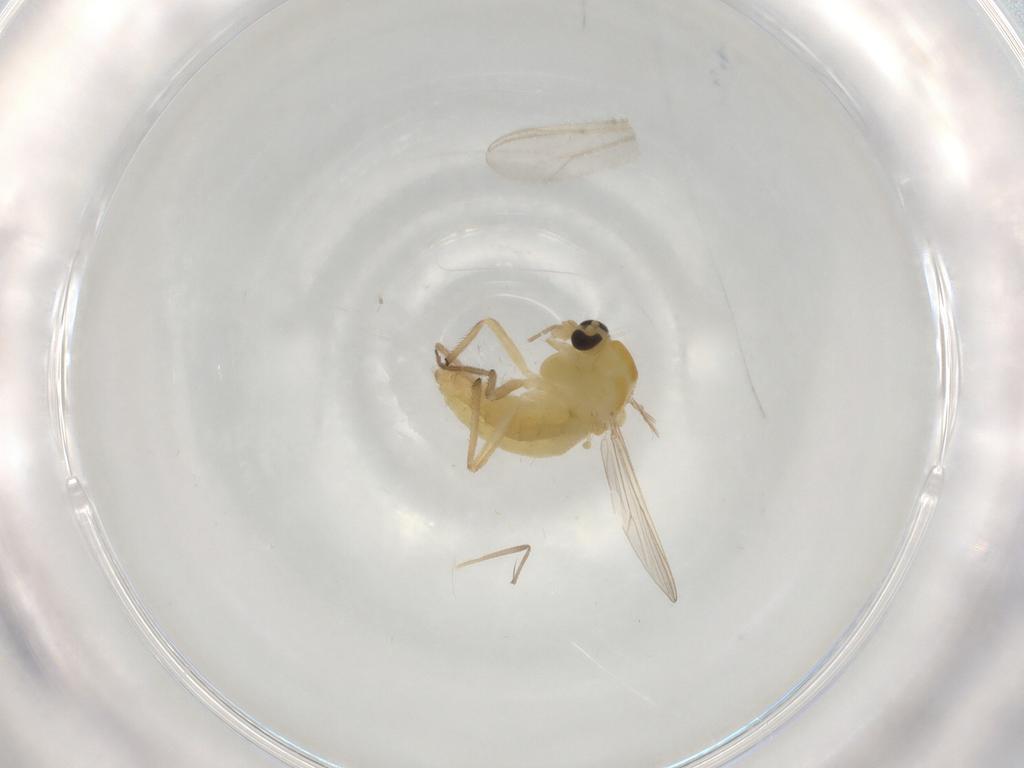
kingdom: Animalia
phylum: Arthropoda
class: Insecta
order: Diptera
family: Chironomidae
